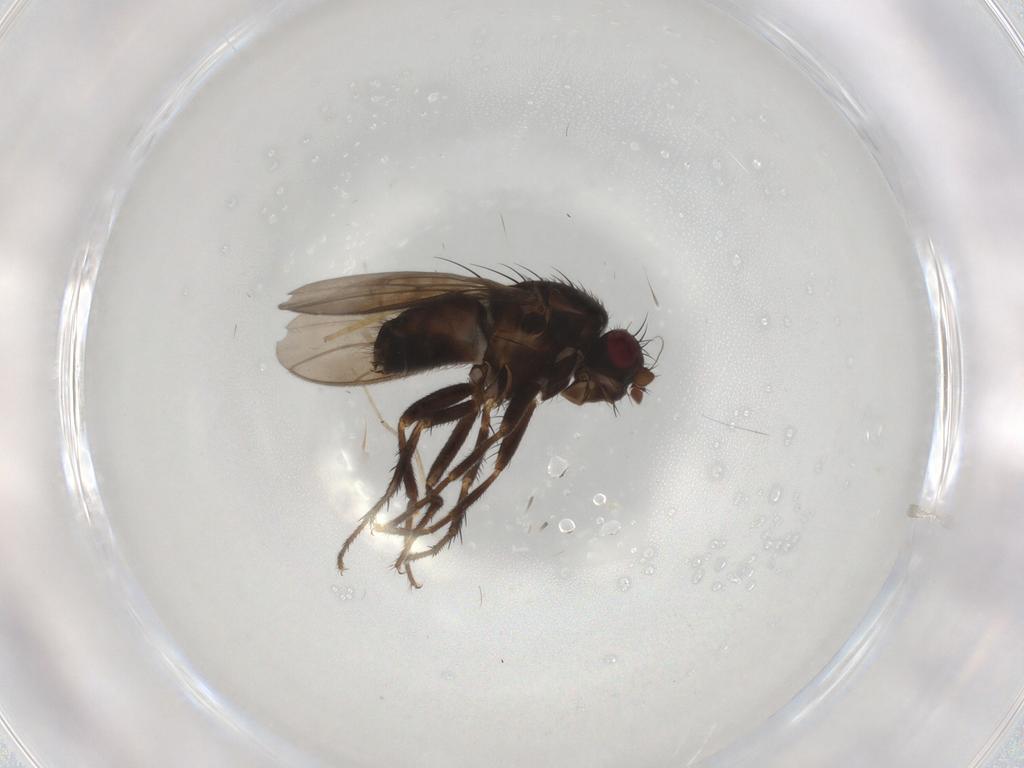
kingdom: Animalia
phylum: Arthropoda
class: Insecta
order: Diptera
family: Sphaeroceridae
